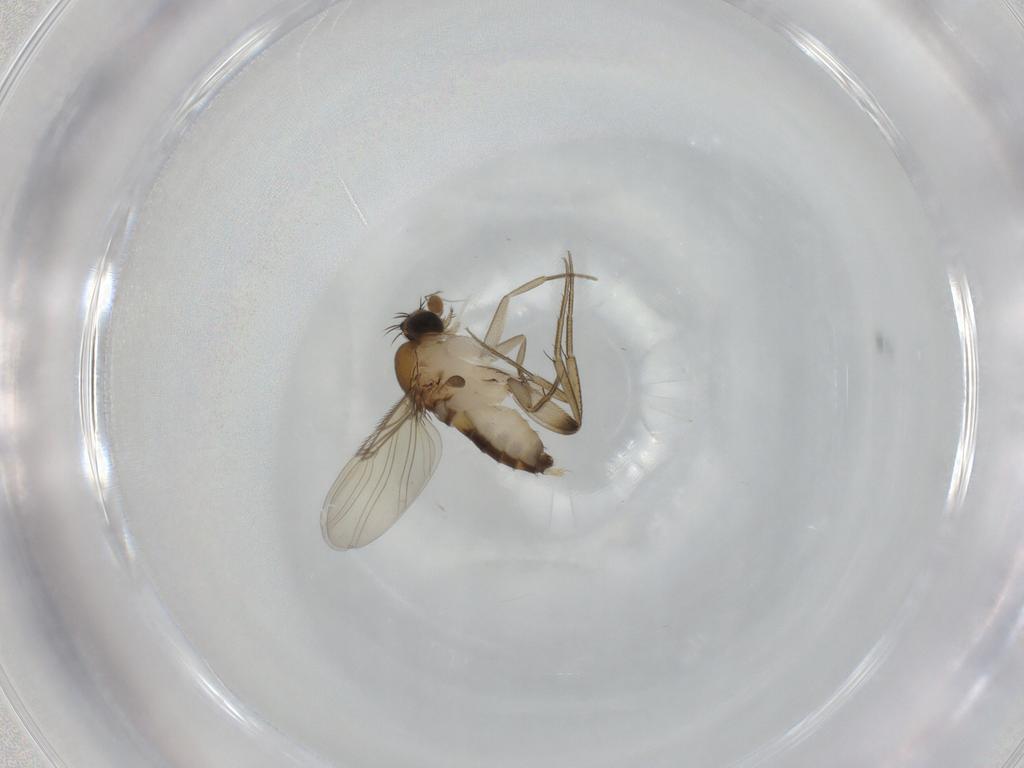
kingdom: Animalia
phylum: Arthropoda
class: Insecta
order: Diptera
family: Phoridae
